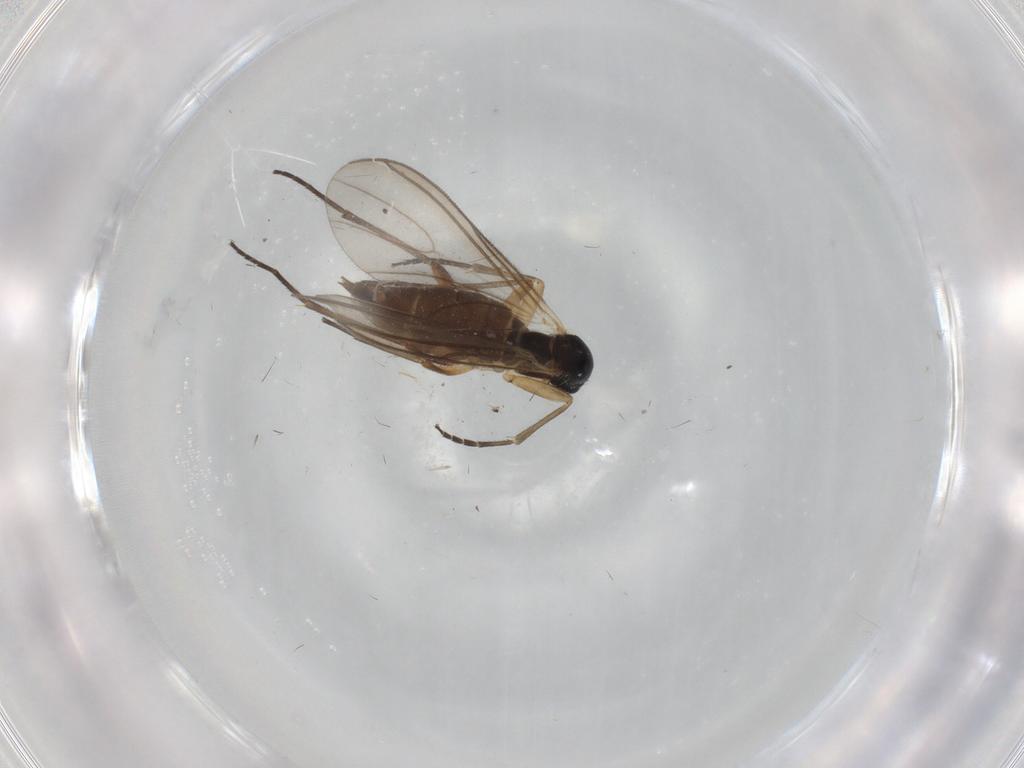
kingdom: Animalia
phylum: Arthropoda
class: Insecta
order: Diptera
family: Sciaridae
